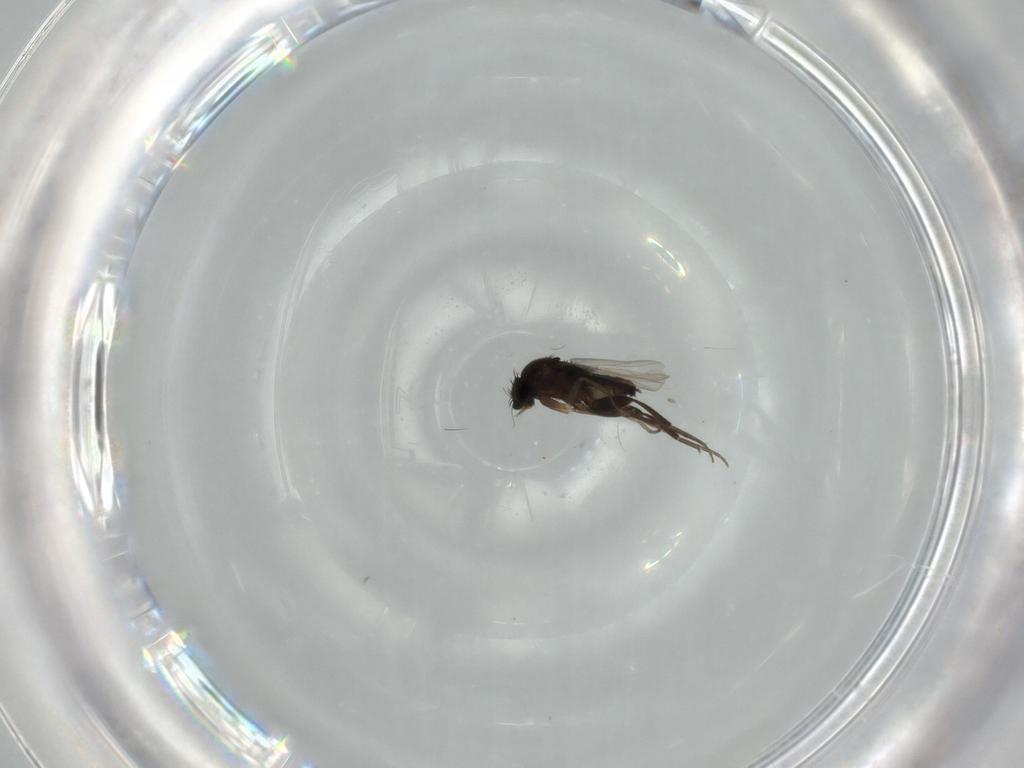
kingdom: Animalia
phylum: Arthropoda
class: Insecta
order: Diptera
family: Phoridae
